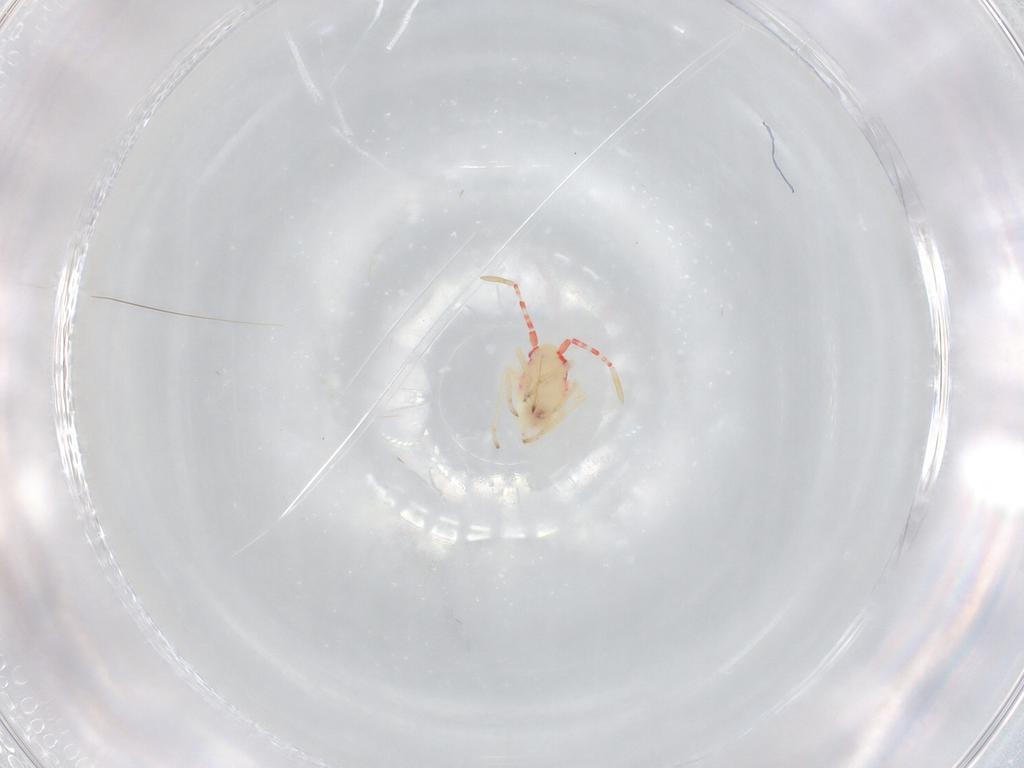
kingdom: Animalia
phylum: Arthropoda
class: Insecta
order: Hemiptera
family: Miridae
